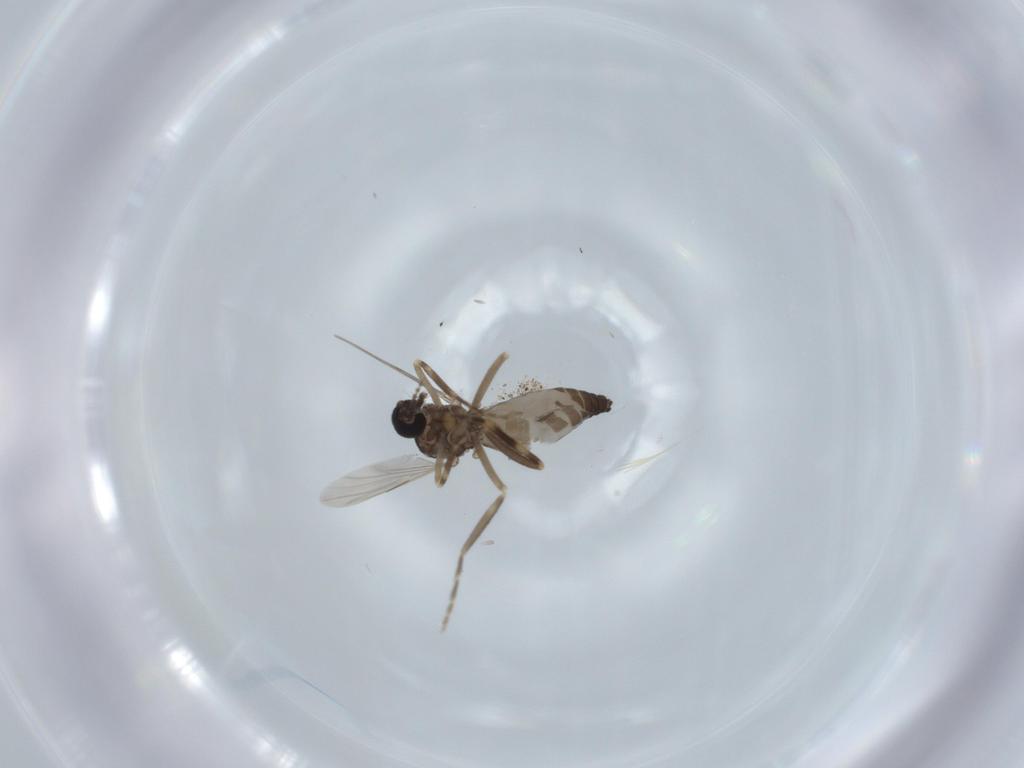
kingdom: Animalia
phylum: Arthropoda
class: Insecta
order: Diptera
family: Ceratopogonidae
